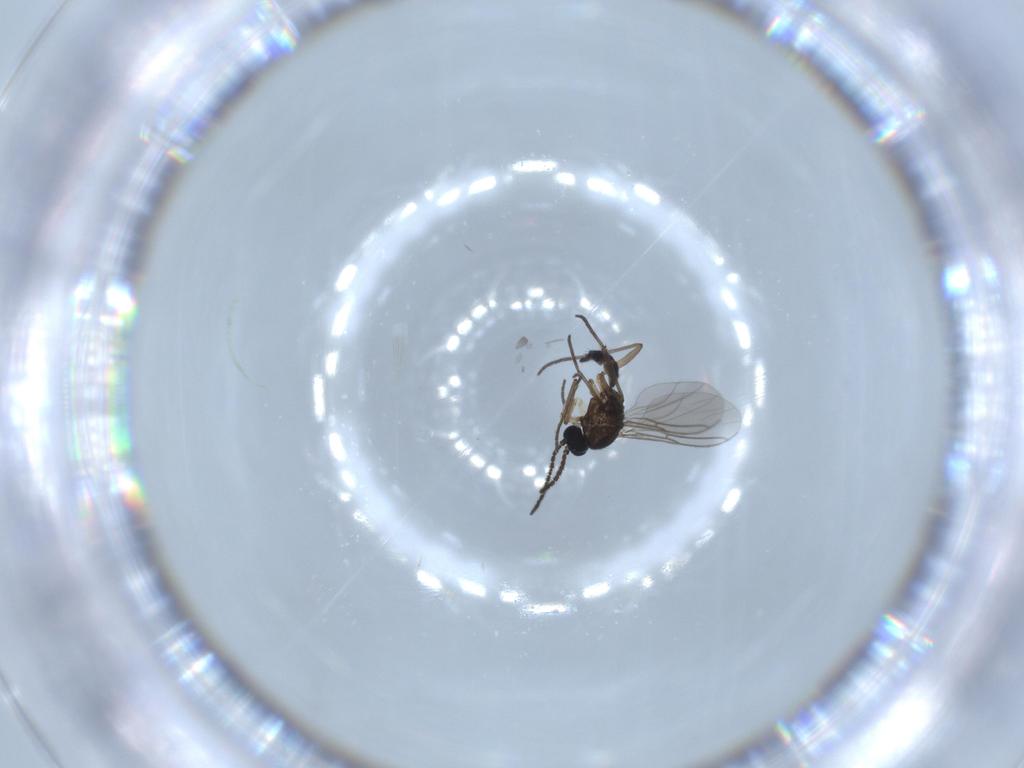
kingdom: Animalia
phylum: Arthropoda
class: Insecta
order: Diptera
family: Sciaridae
